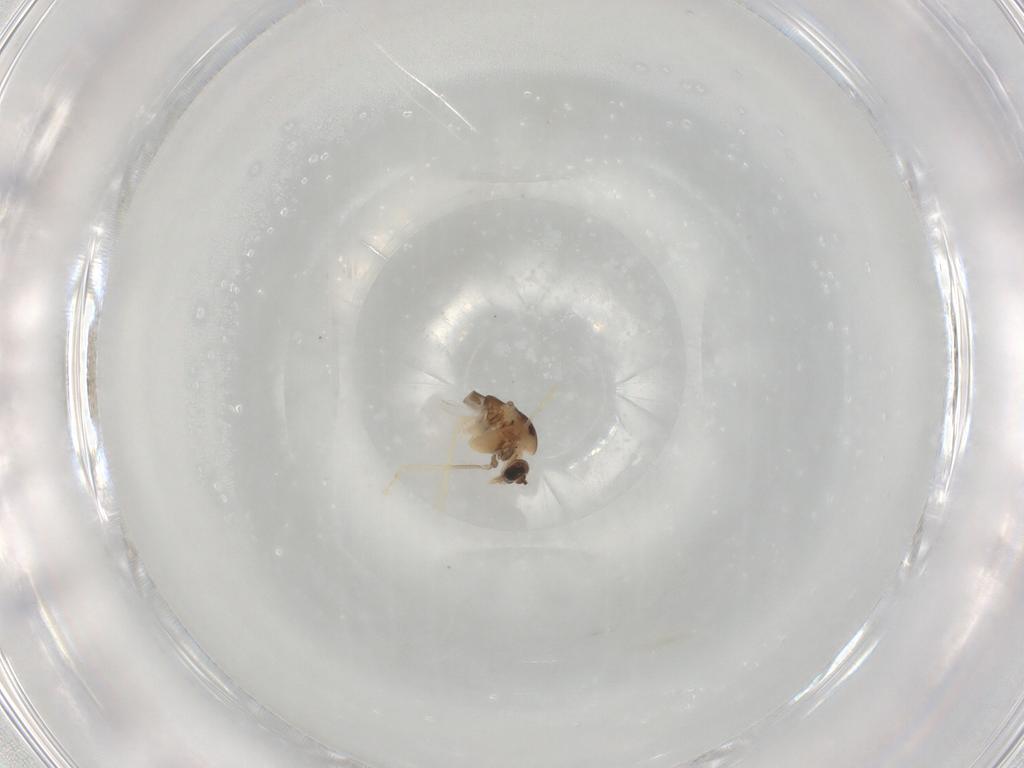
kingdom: Animalia
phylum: Arthropoda
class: Insecta
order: Diptera
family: Chironomidae
